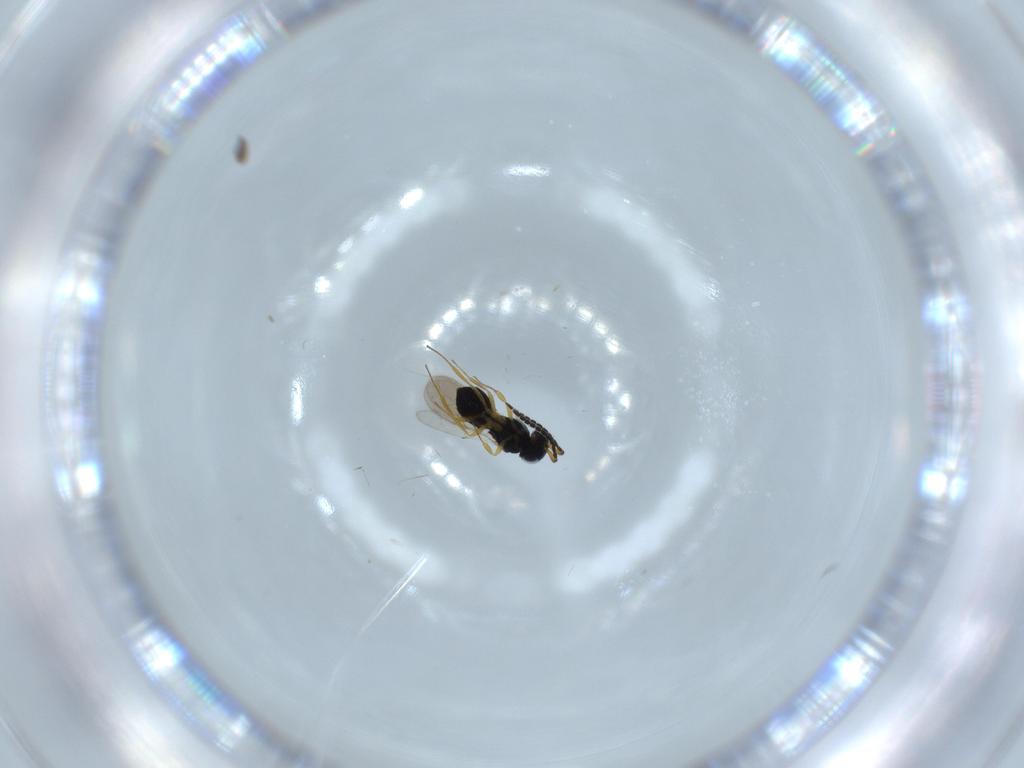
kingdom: Animalia
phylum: Arthropoda
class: Insecta
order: Hymenoptera
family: Scelionidae
